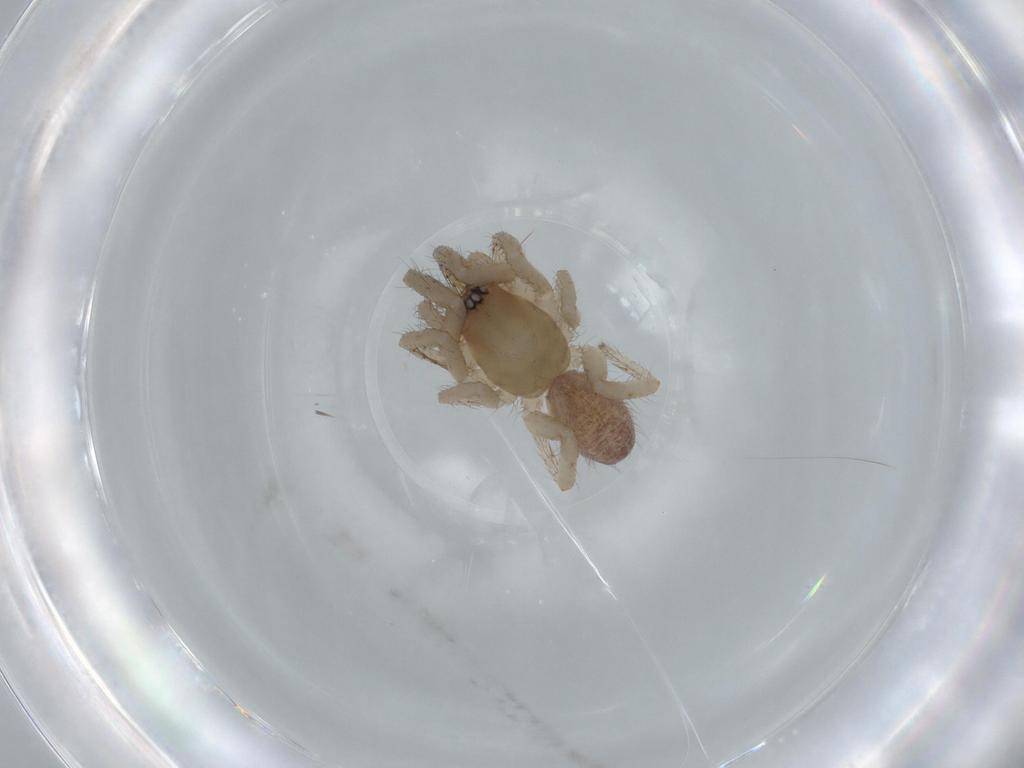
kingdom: Animalia
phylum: Arthropoda
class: Arachnida
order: Araneae
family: Segestriidae
